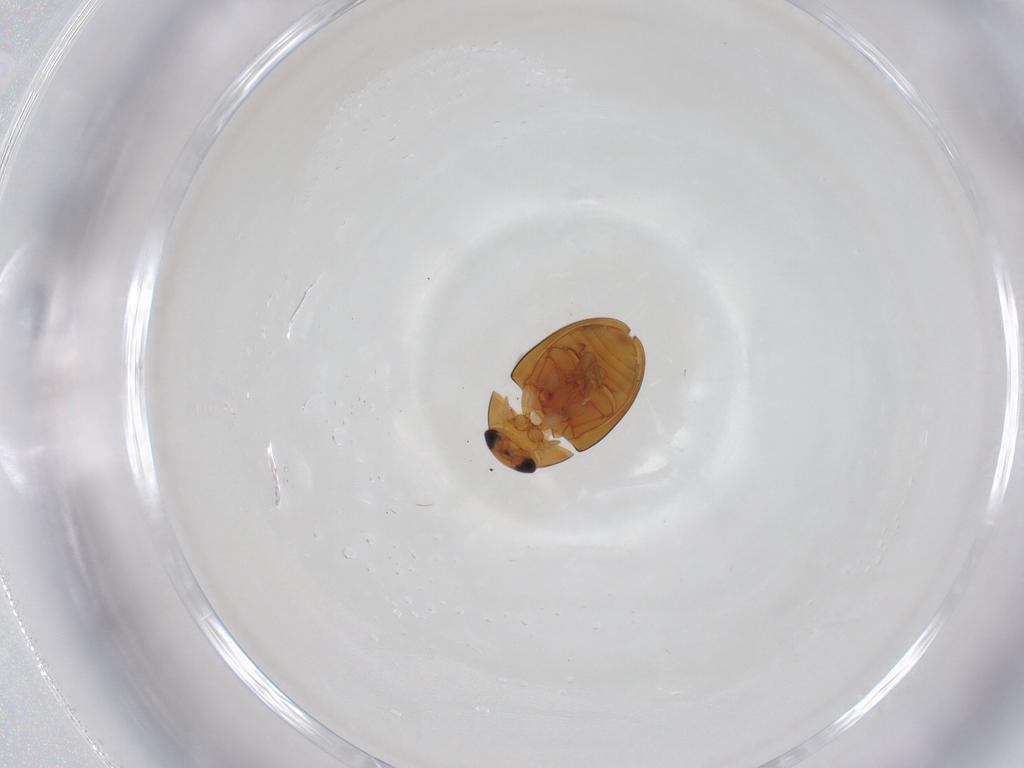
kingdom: Animalia
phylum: Arthropoda
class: Insecta
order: Coleoptera
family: Phalacridae
